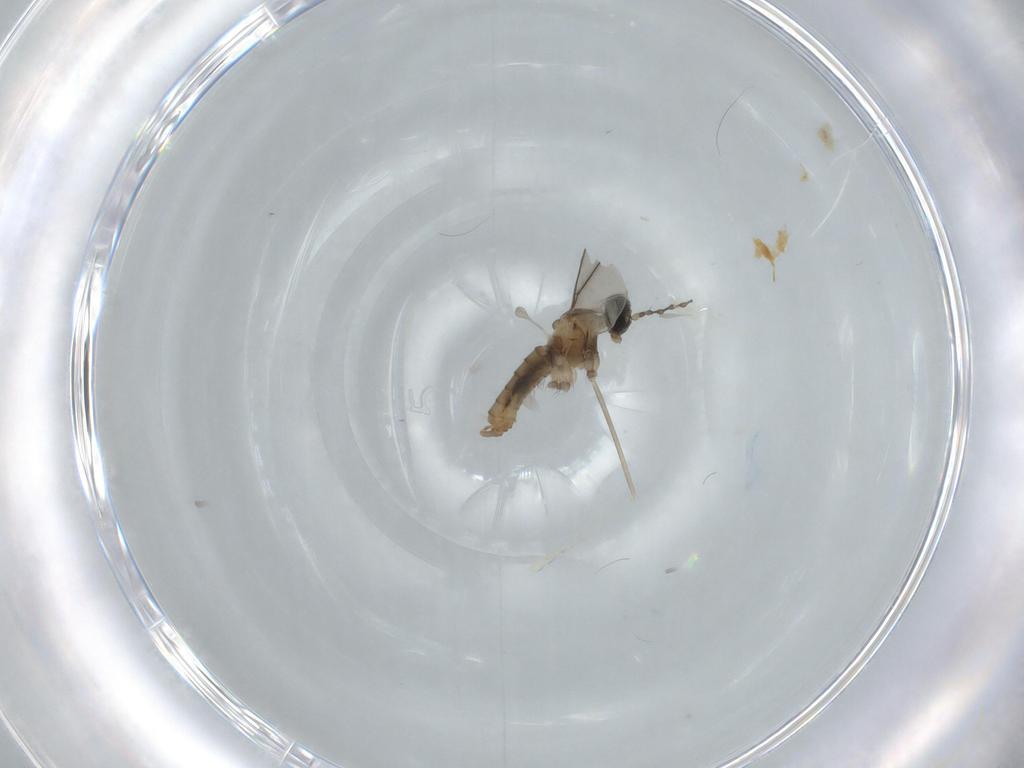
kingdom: Animalia
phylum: Arthropoda
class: Insecta
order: Diptera
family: Cecidomyiidae
